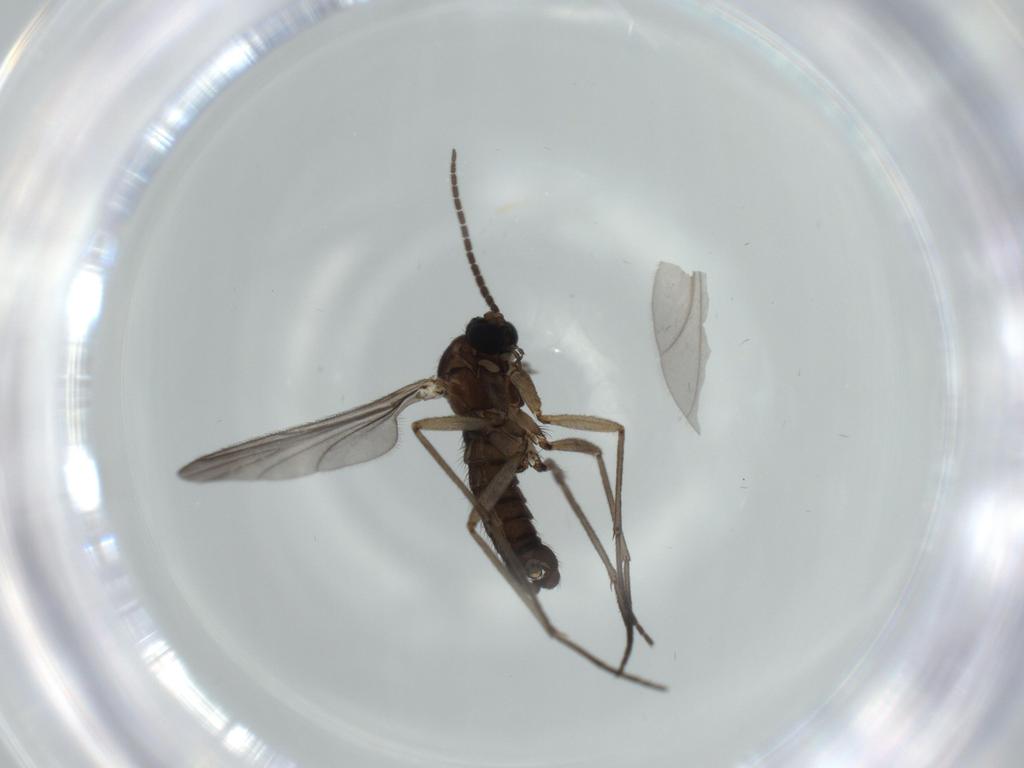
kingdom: Animalia
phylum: Arthropoda
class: Insecta
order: Diptera
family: Sciaridae
